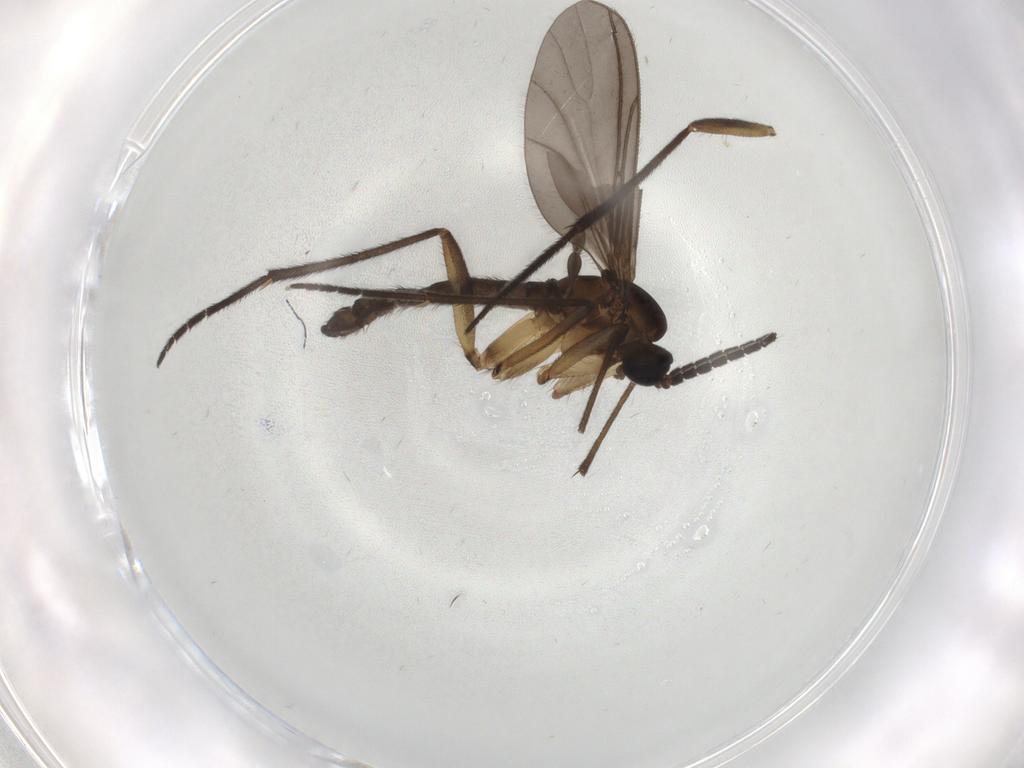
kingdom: Animalia
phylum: Arthropoda
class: Insecta
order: Diptera
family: Sciaridae
